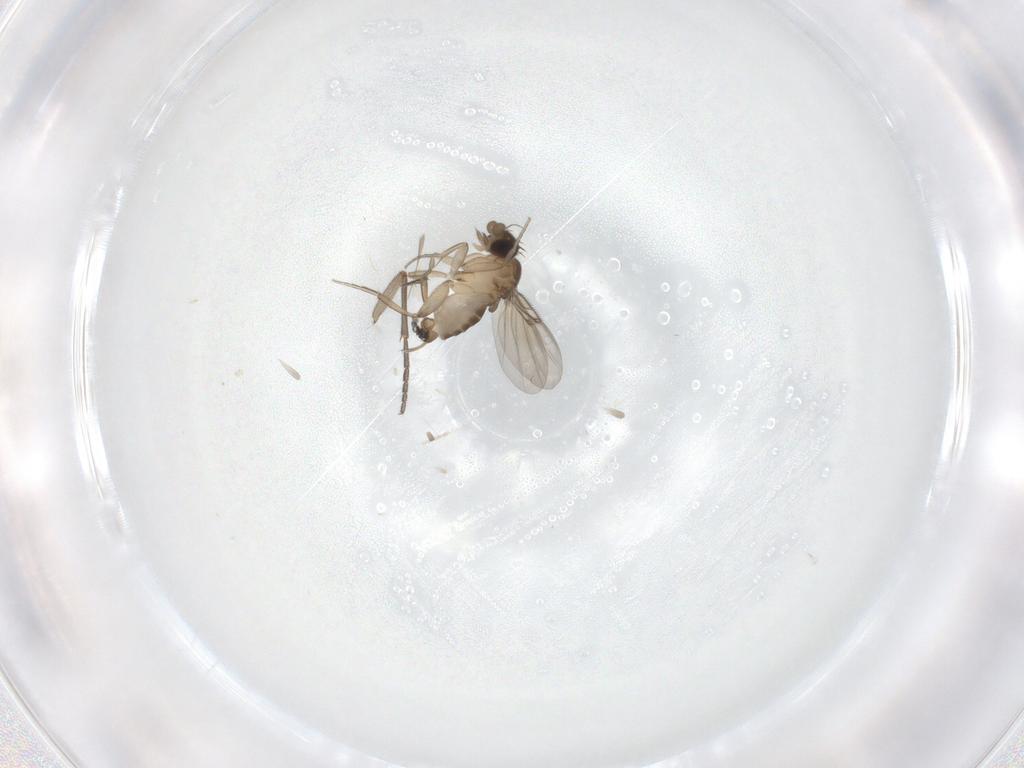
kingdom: Animalia
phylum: Arthropoda
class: Insecta
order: Diptera
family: Sciaridae
